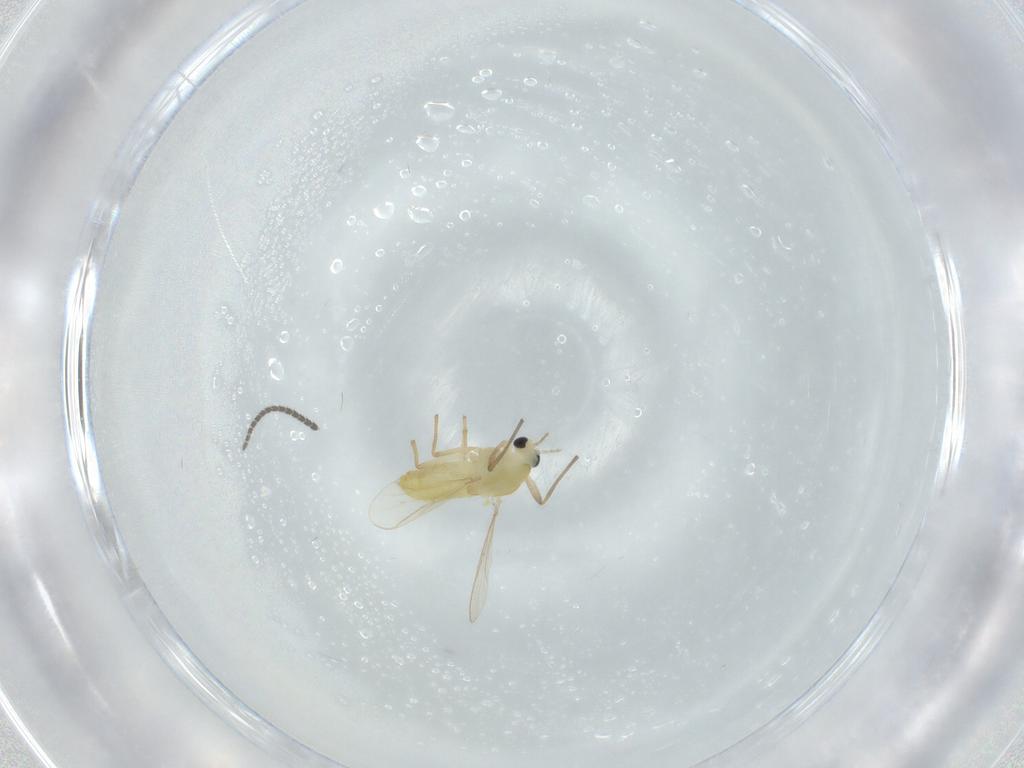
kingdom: Animalia
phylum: Arthropoda
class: Insecta
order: Diptera
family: Chironomidae
